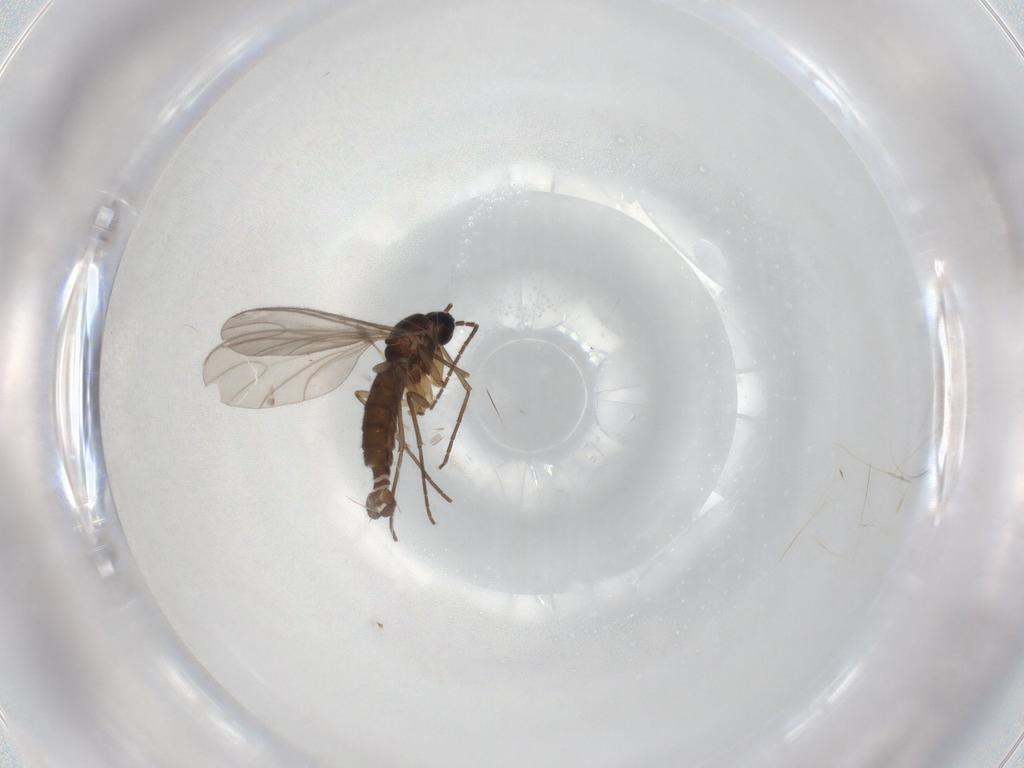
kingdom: Animalia
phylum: Arthropoda
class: Insecta
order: Diptera
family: Sciaridae
